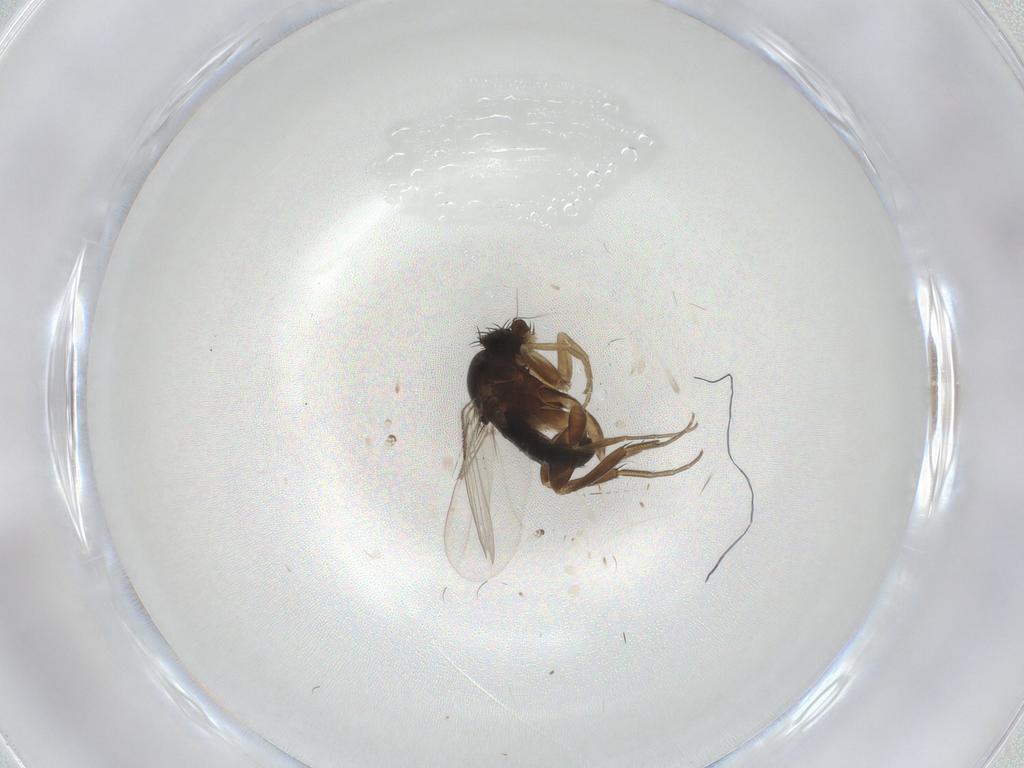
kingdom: Animalia
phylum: Arthropoda
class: Insecta
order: Diptera
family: Phoridae
